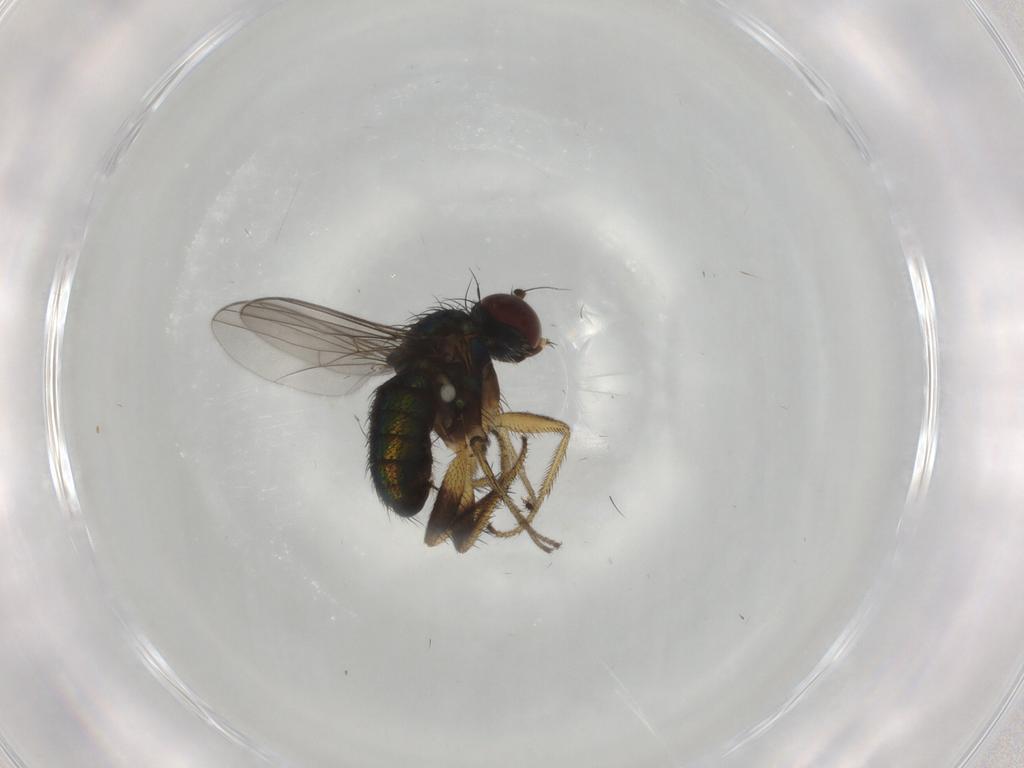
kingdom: Animalia
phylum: Arthropoda
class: Insecta
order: Diptera
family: Dolichopodidae
